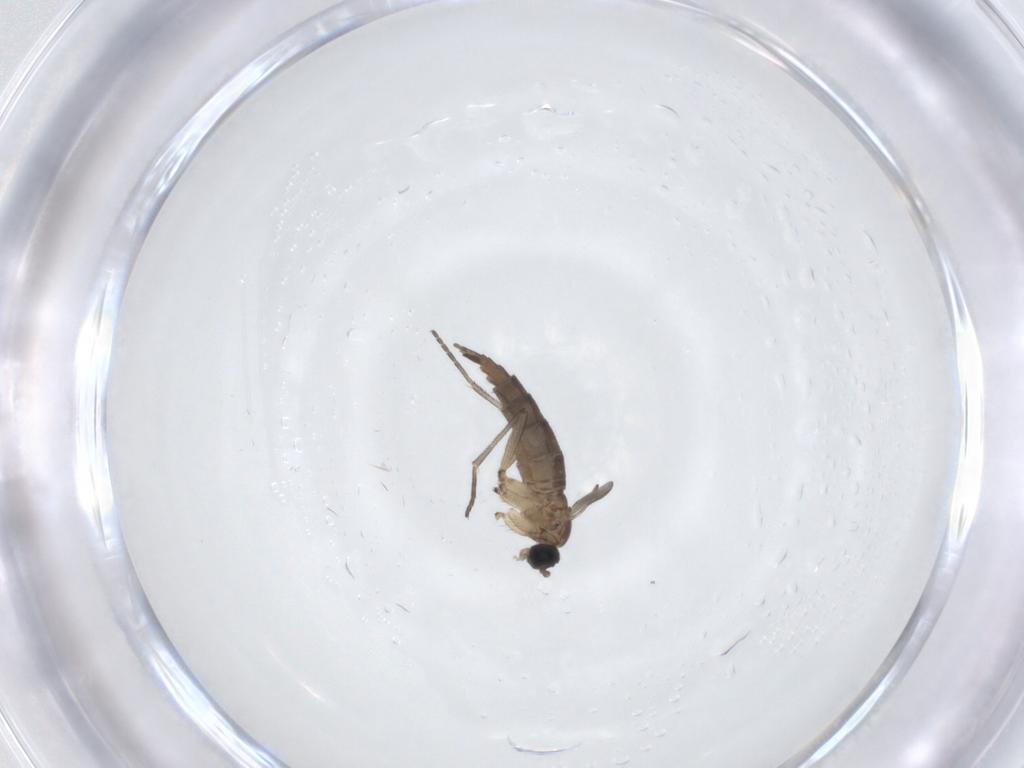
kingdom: Animalia
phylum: Arthropoda
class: Insecta
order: Diptera
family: Sciaridae
